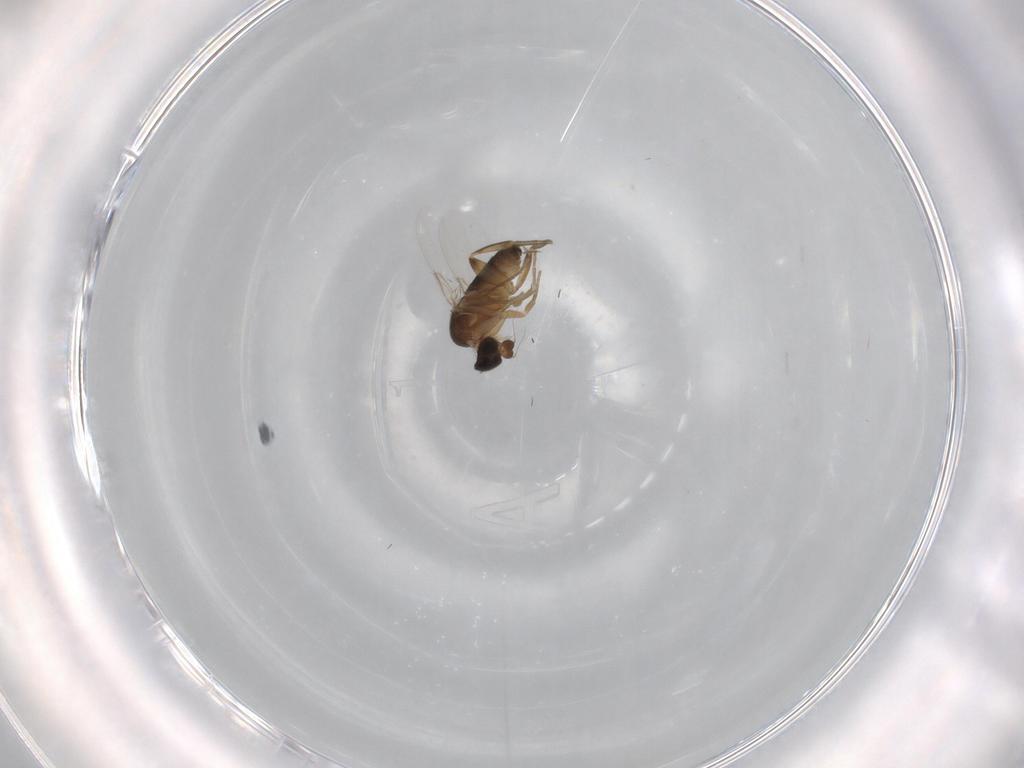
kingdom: Animalia
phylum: Arthropoda
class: Insecta
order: Diptera
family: Phoridae
